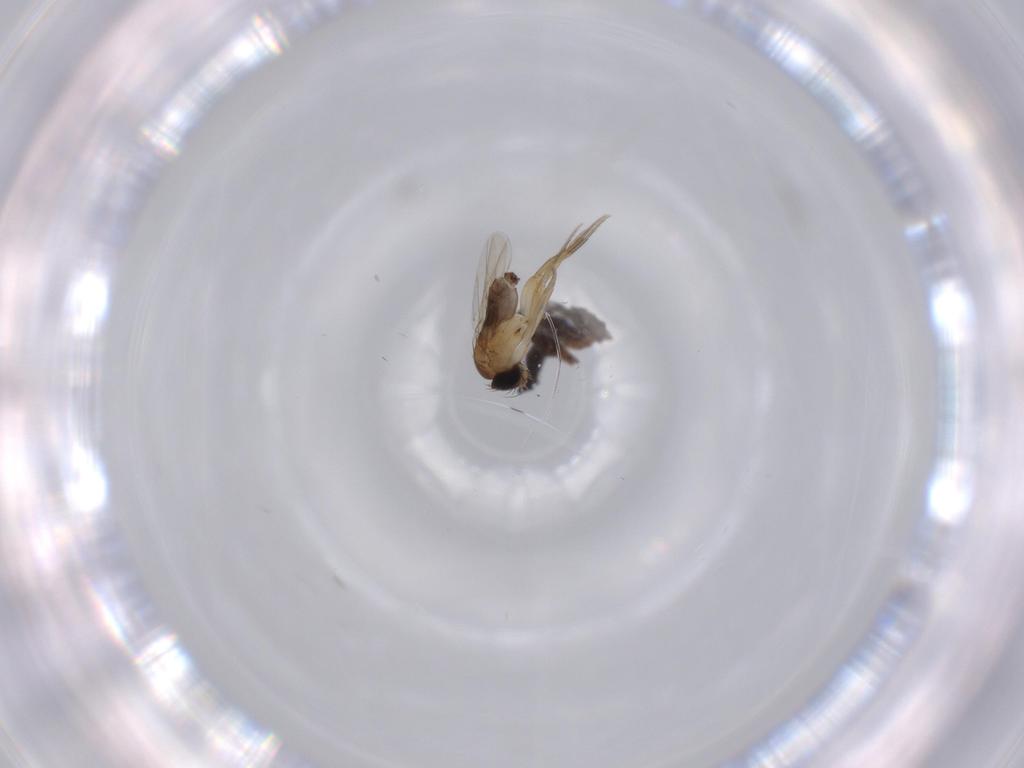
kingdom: Animalia
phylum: Arthropoda
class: Insecta
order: Diptera
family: Phoridae
